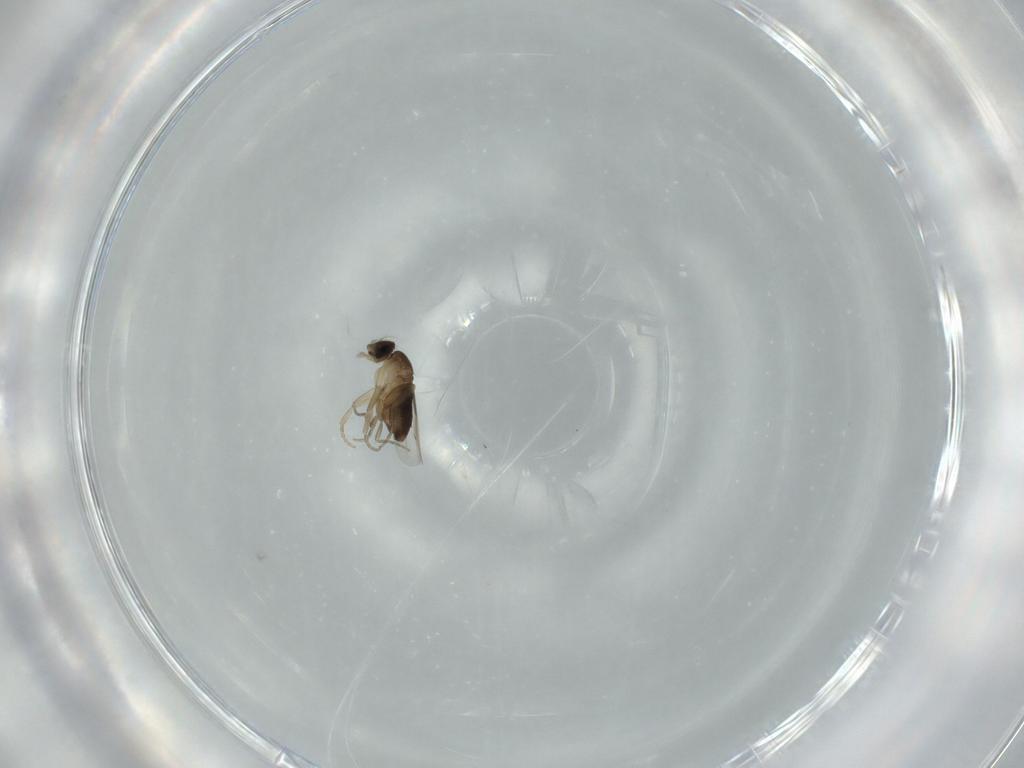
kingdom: Animalia
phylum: Arthropoda
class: Insecta
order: Diptera
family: Phoridae
